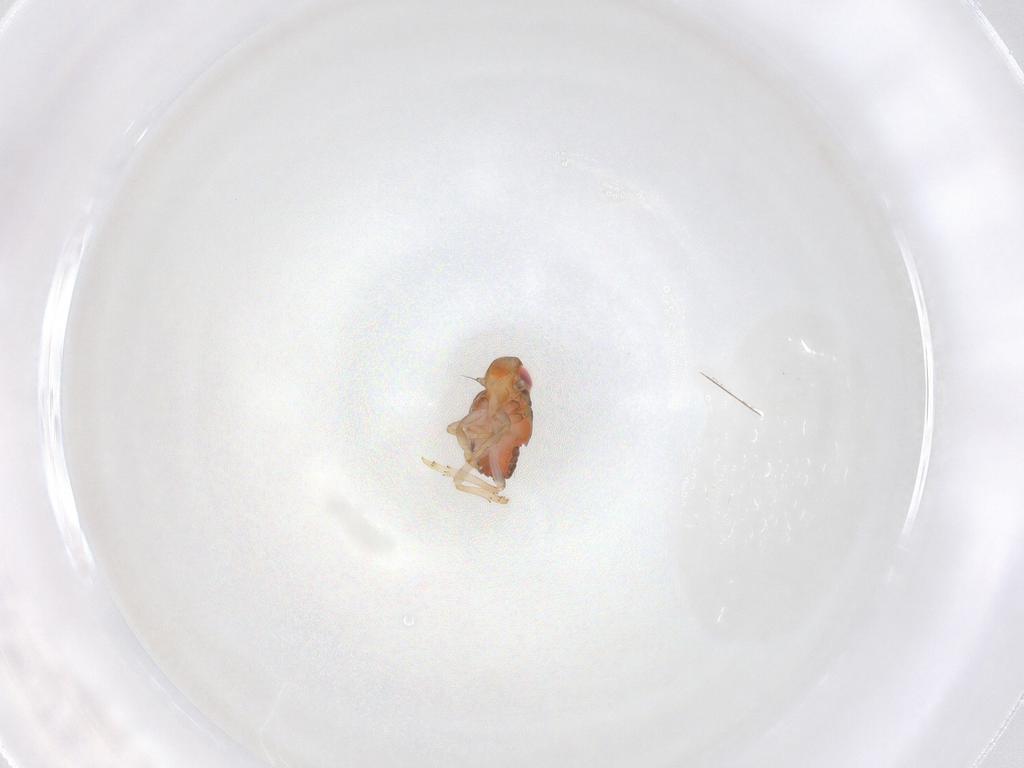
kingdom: Animalia
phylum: Arthropoda
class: Insecta
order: Hemiptera
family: Issidae
